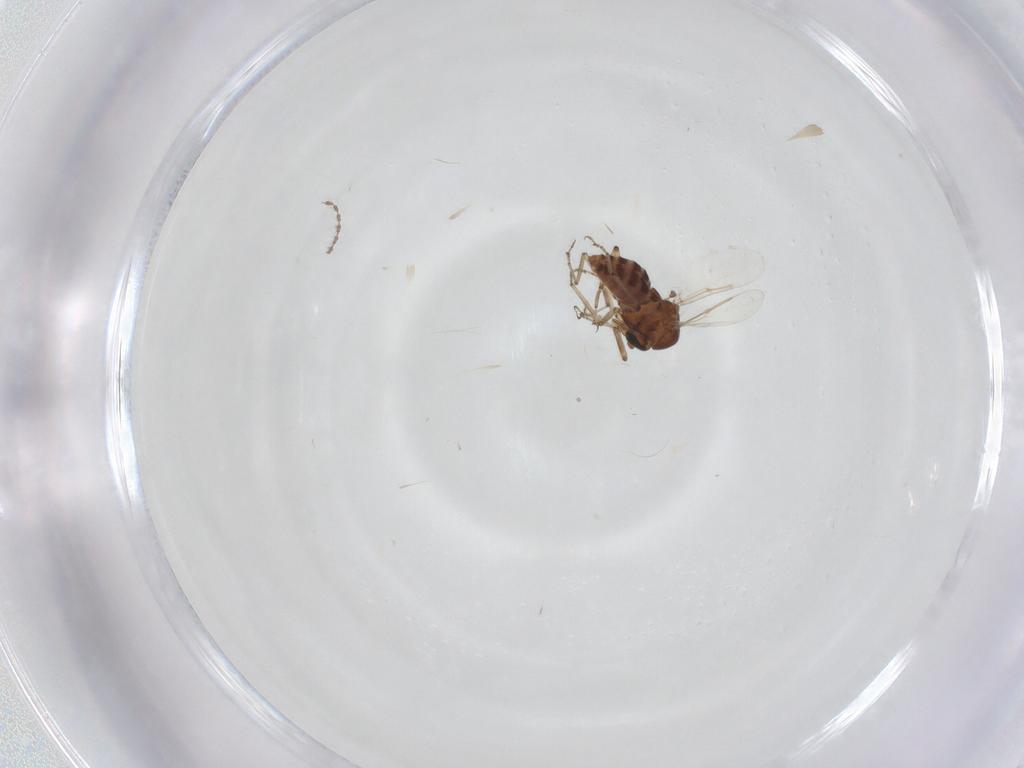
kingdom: Animalia
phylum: Arthropoda
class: Insecta
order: Diptera
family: Ceratopogonidae
